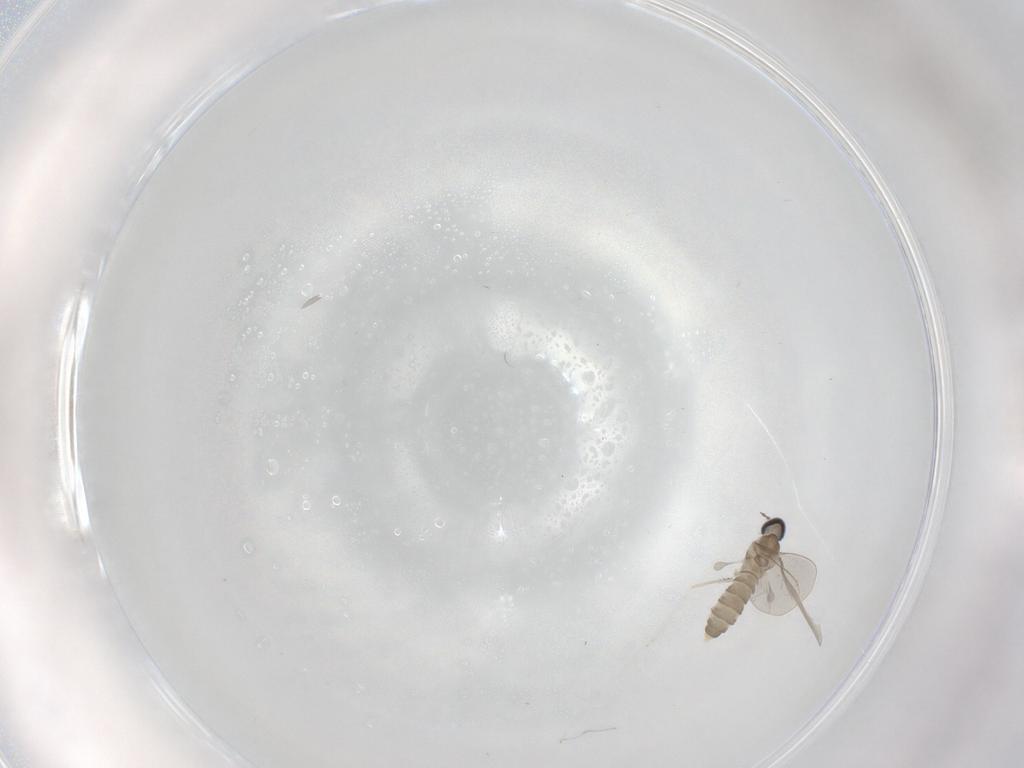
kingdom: Animalia
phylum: Arthropoda
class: Insecta
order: Diptera
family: Cecidomyiidae
